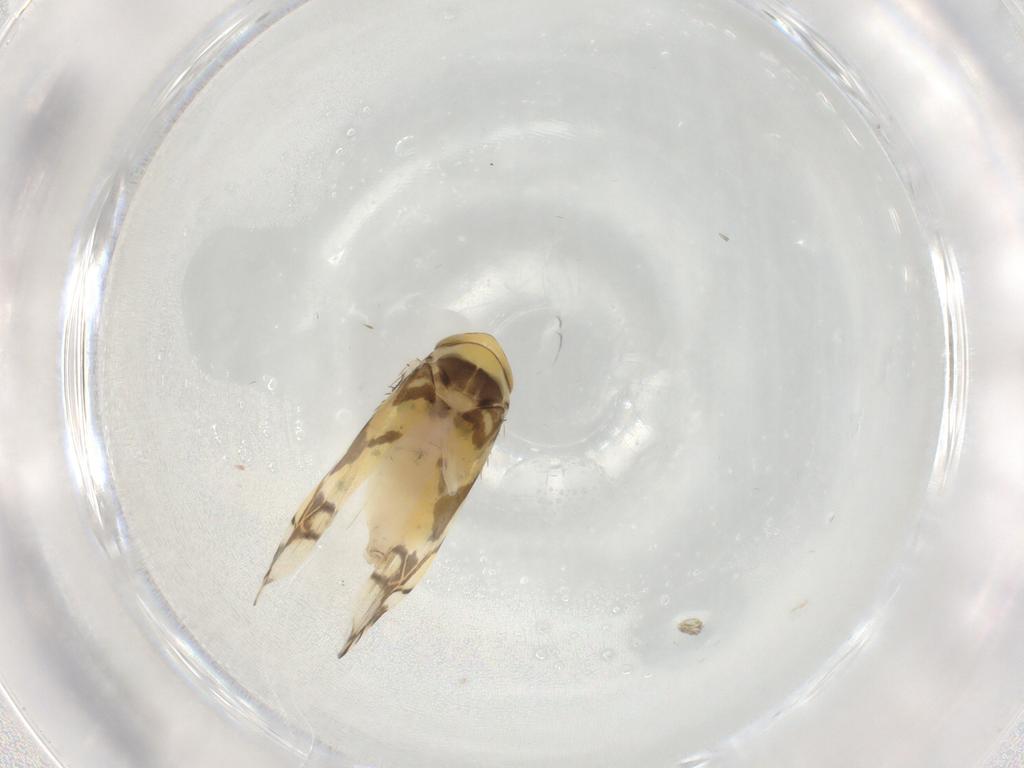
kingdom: Animalia
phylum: Arthropoda
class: Insecta
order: Hemiptera
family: Cicadellidae
